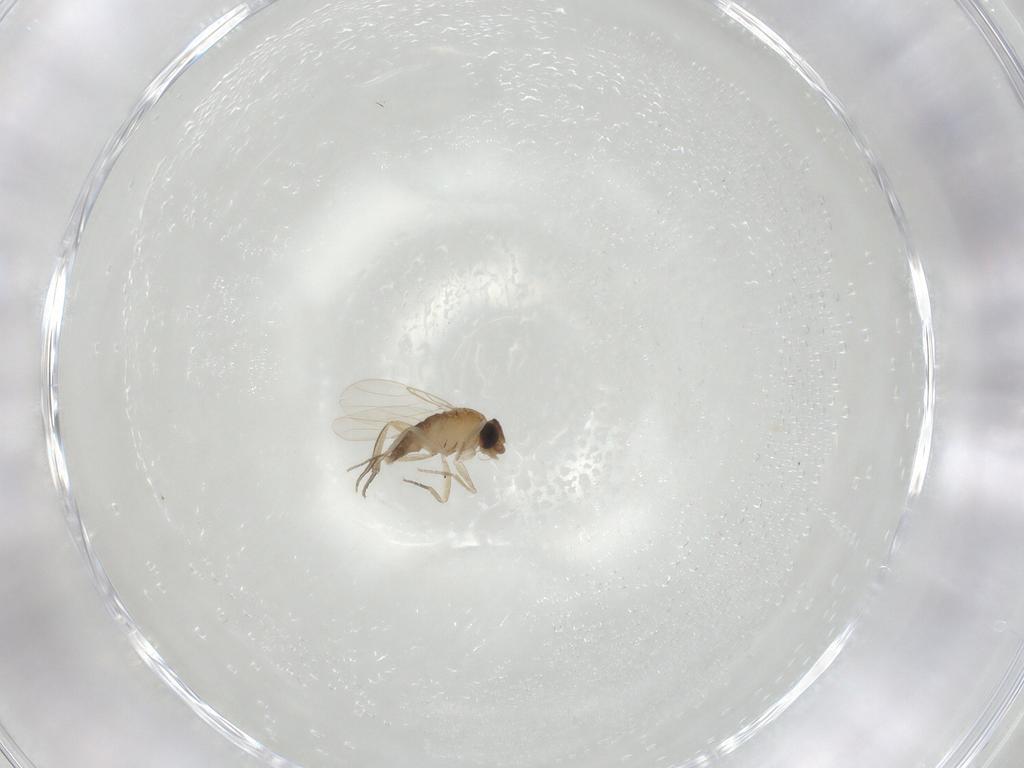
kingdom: Animalia
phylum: Arthropoda
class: Insecta
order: Diptera
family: Phoridae
